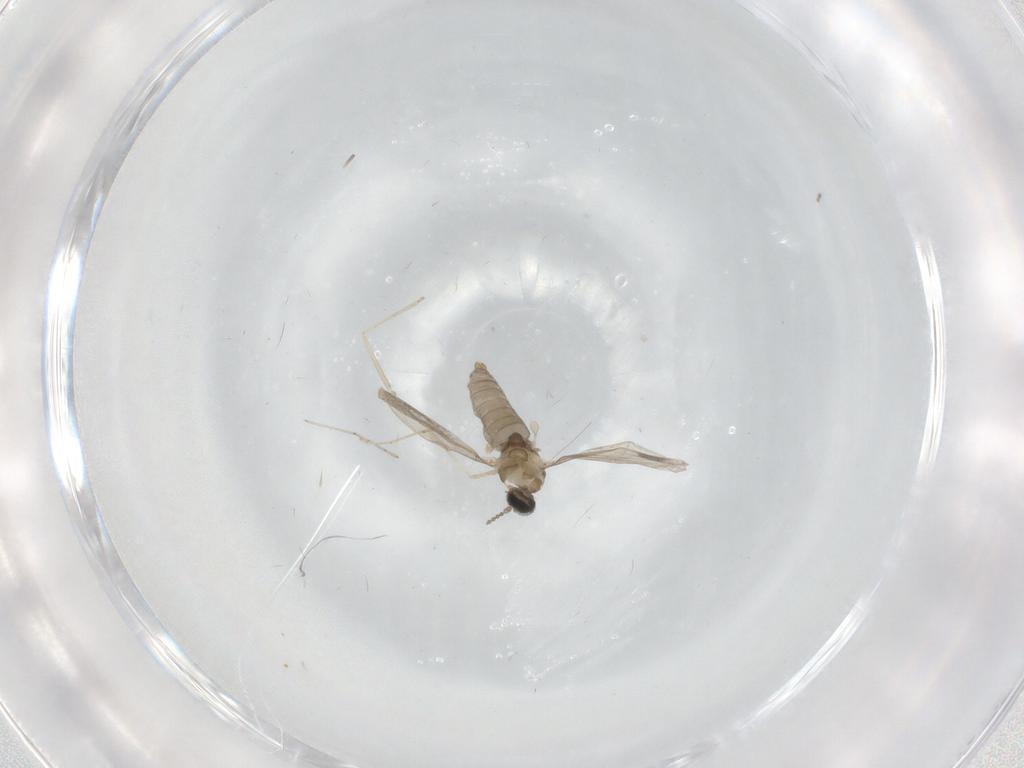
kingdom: Animalia
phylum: Arthropoda
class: Insecta
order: Diptera
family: Cecidomyiidae
